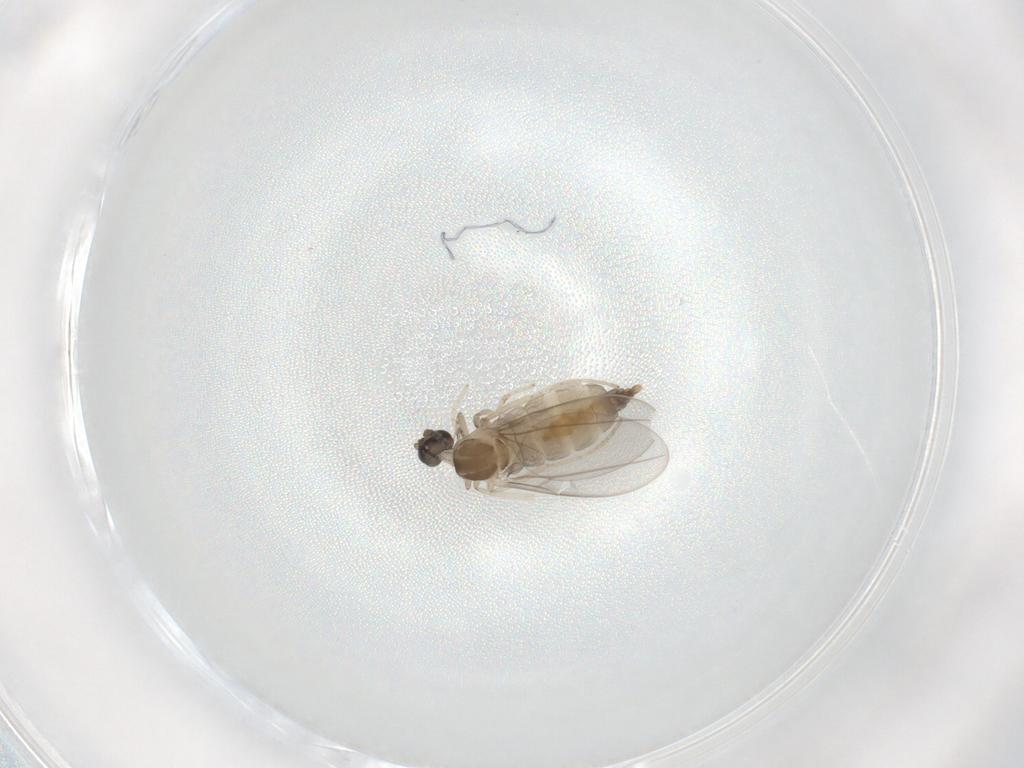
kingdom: Animalia
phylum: Arthropoda
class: Insecta
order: Diptera
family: Cecidomyiidae
